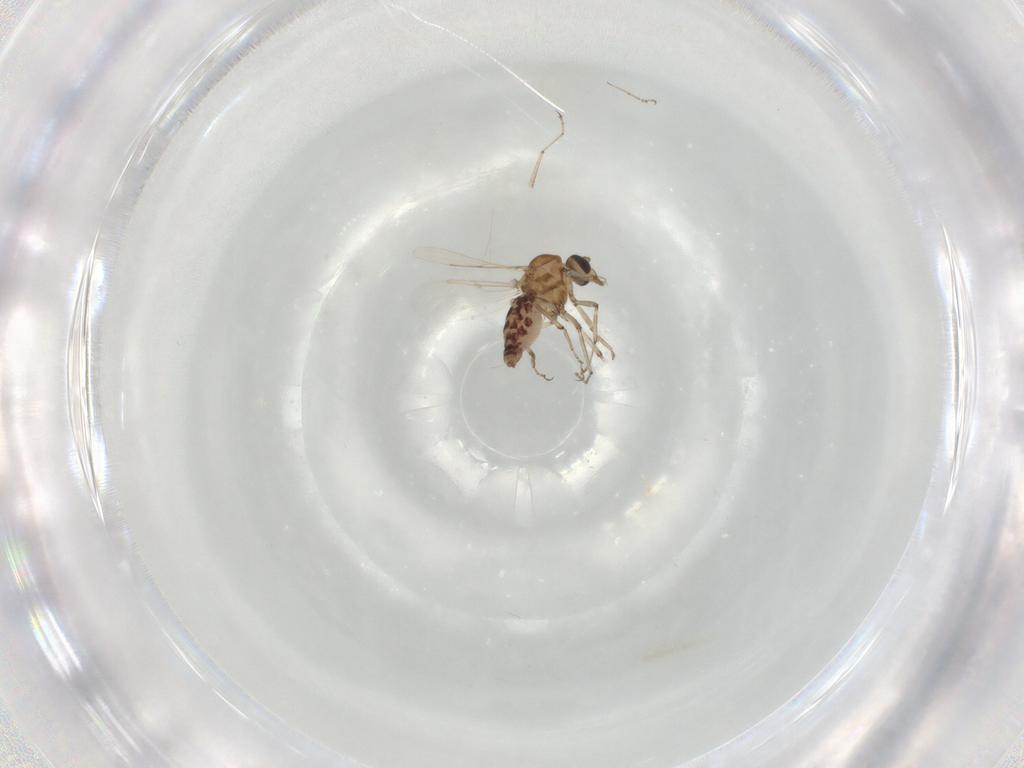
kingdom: Animalia
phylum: Arthropoda
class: Insecta
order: Diptera
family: Ceratopogonidae
